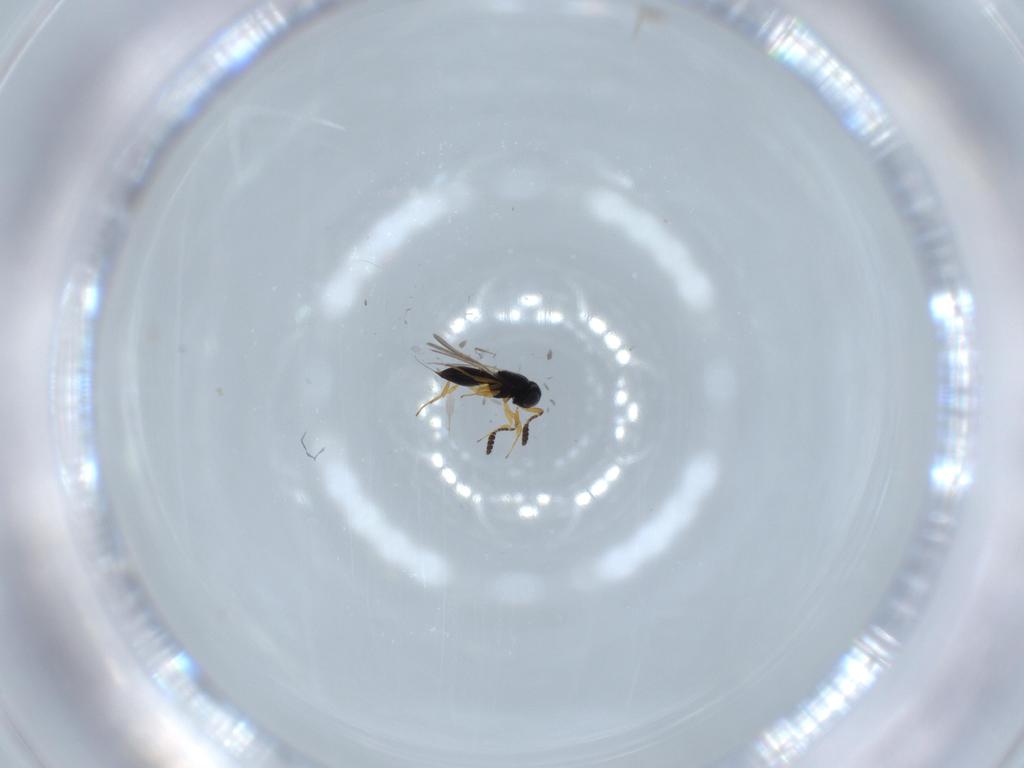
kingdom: Animalia
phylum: Arthropoda
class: Insecta
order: Hymenoptera
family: Scelionidae
